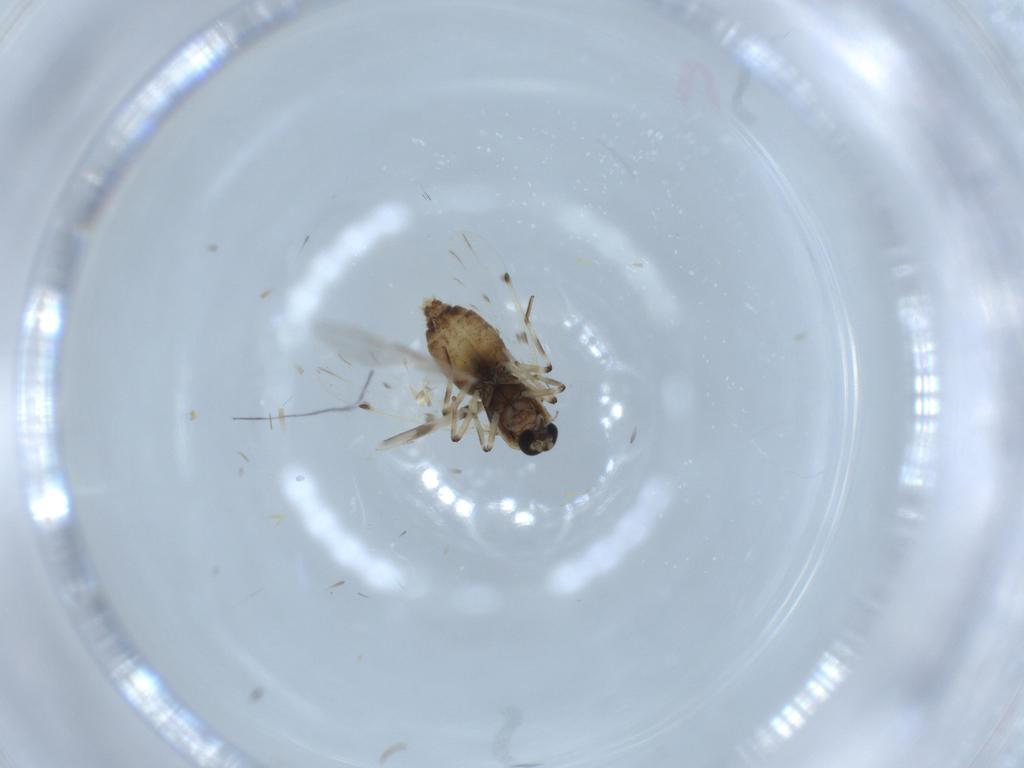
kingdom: Animalia
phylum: Arthropoda
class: Insecta
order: Diptera
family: Ceratopogonidae
